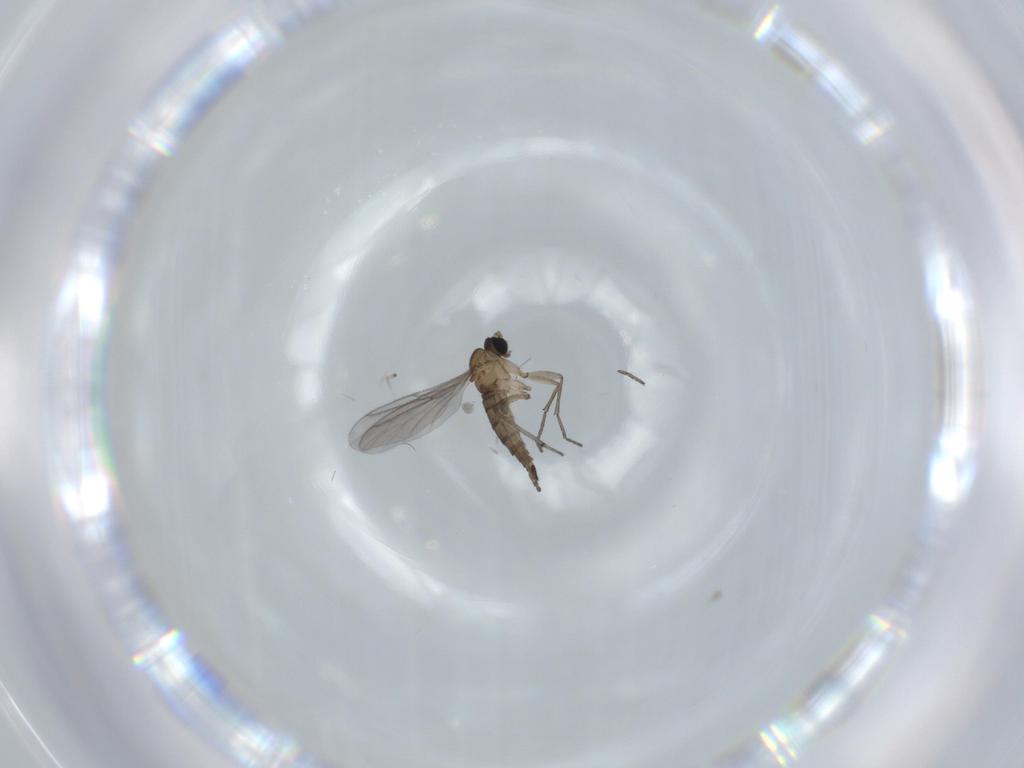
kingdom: Animalia
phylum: Arthropoda
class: Insecta
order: Diptera
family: Sciaridae
